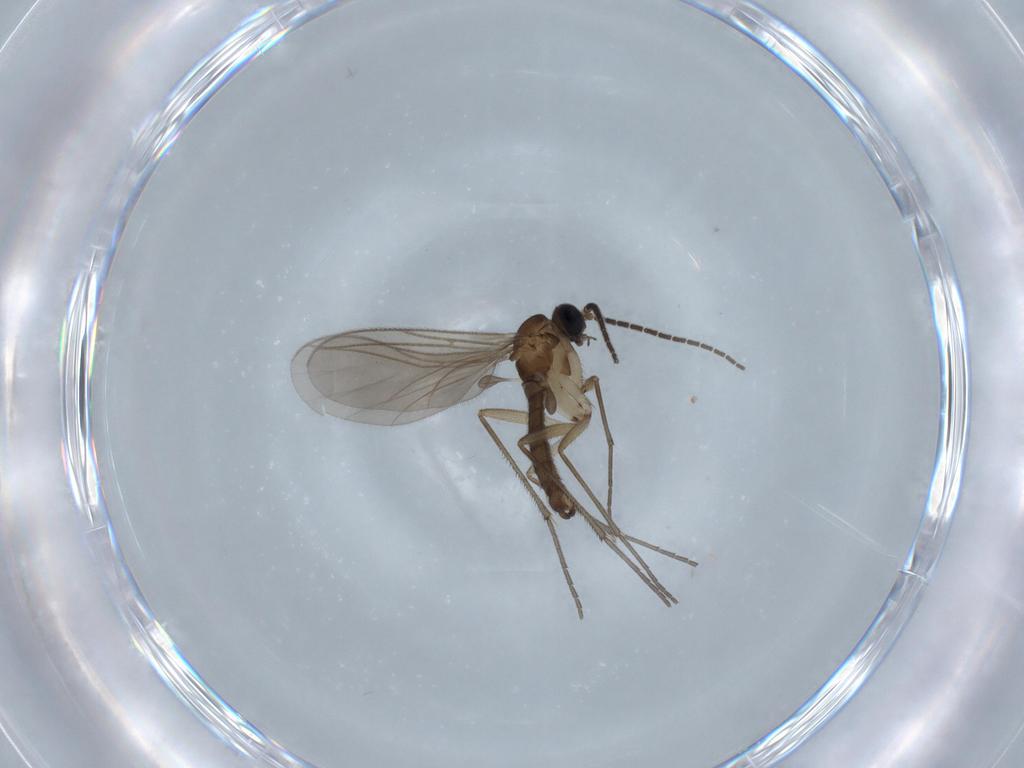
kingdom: Animalia
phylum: Arthropoda
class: Insecta
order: Diptera
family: Sciaridae
